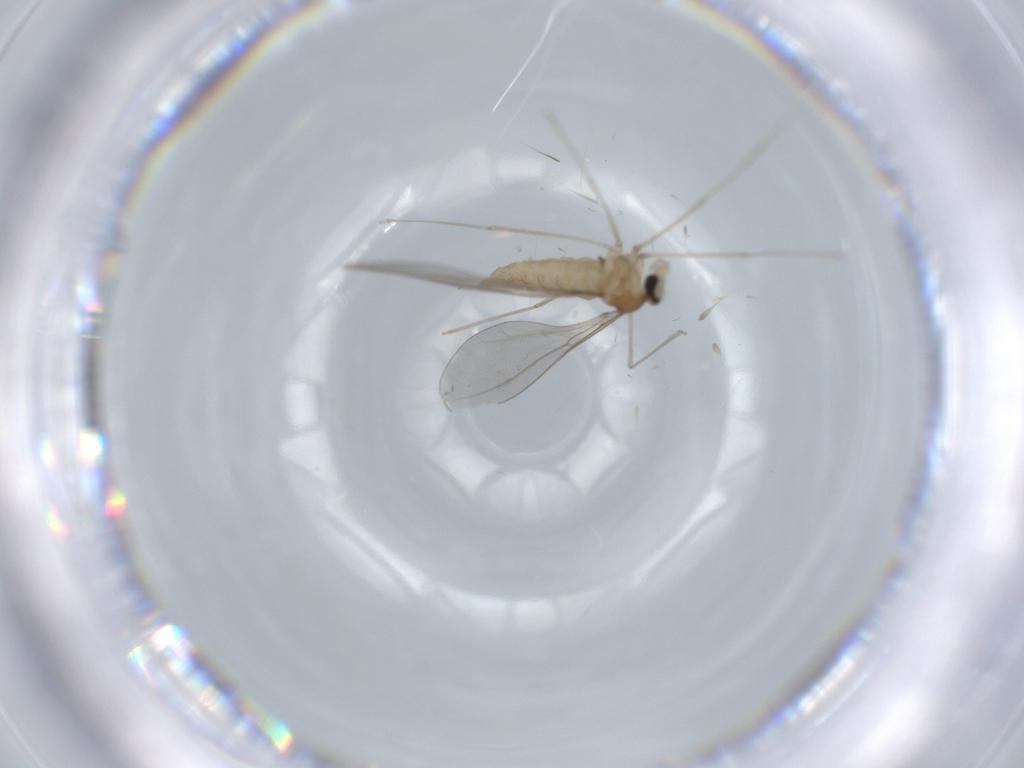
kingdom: Animalia
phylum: Arthropoda
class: Insecta
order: Diptera
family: Cecidomyiidae
